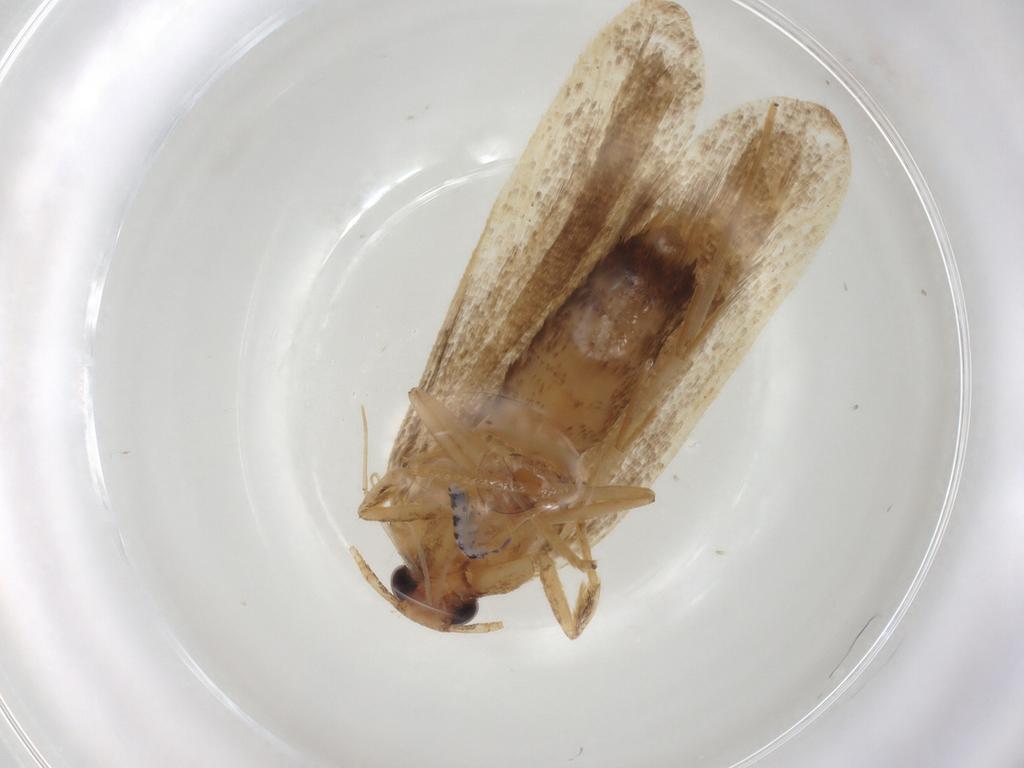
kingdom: Animalia
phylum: Arthropoda
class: Insecta
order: Lepidoptera
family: Lecithoceridae
